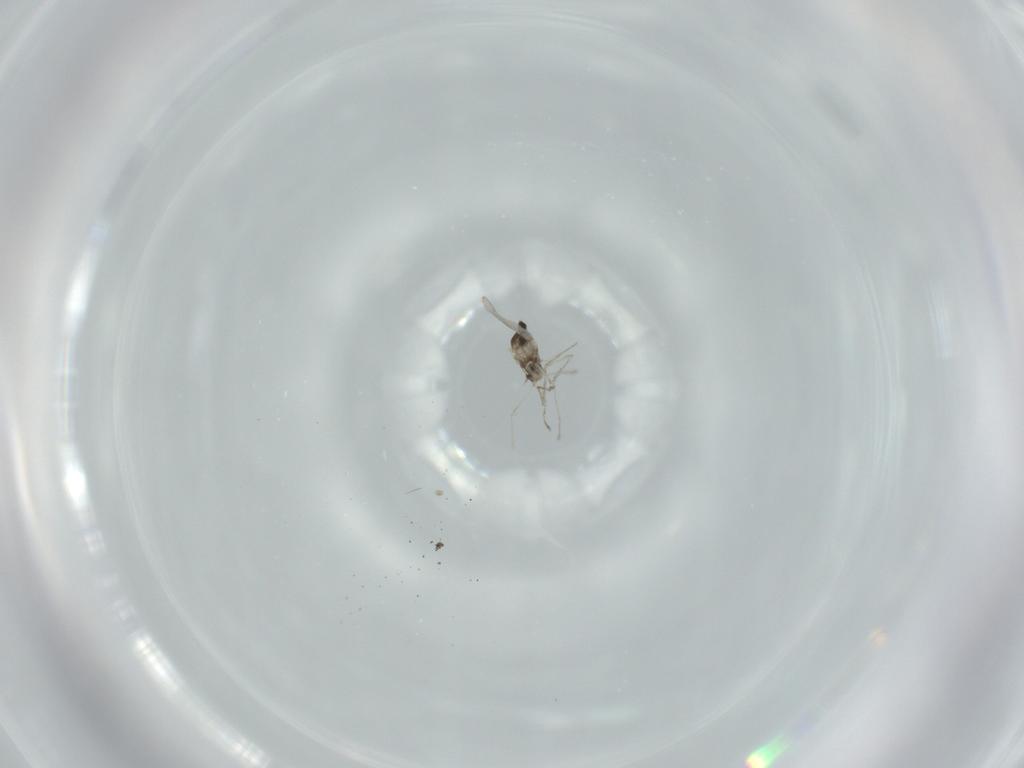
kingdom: Animalia
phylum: Arthropoda
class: Insecta
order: Diptera
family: Cecidomyiidae
